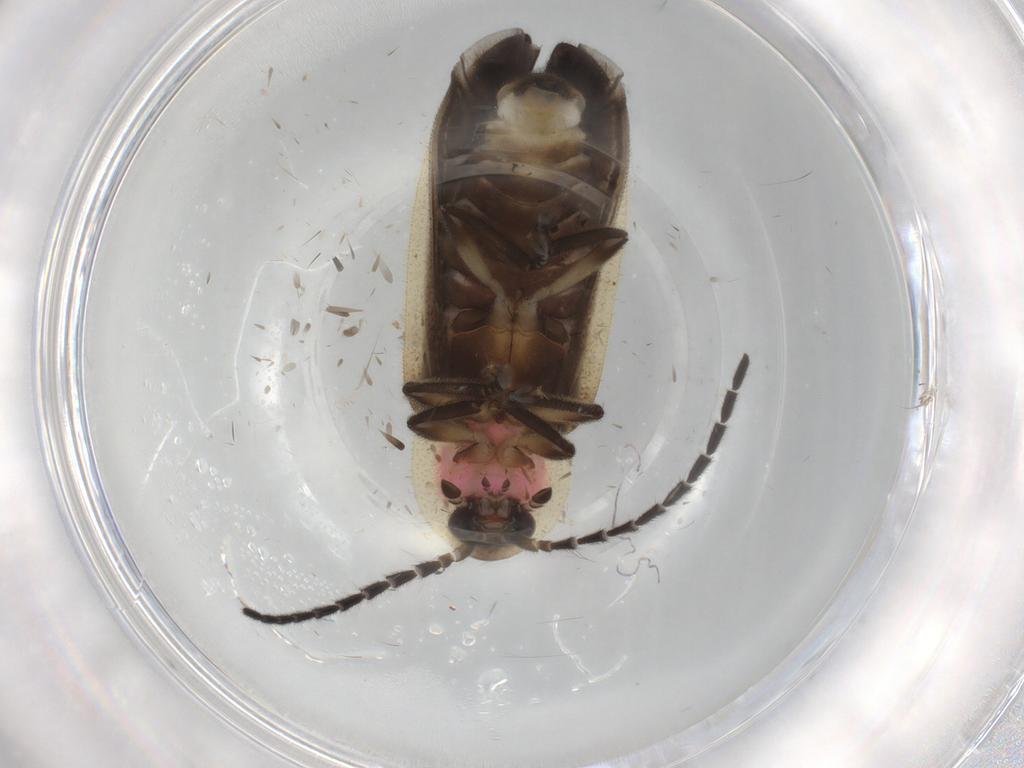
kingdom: Animalia
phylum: Arthropoda
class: Insecta
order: Coleoptera
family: Lampyridae
